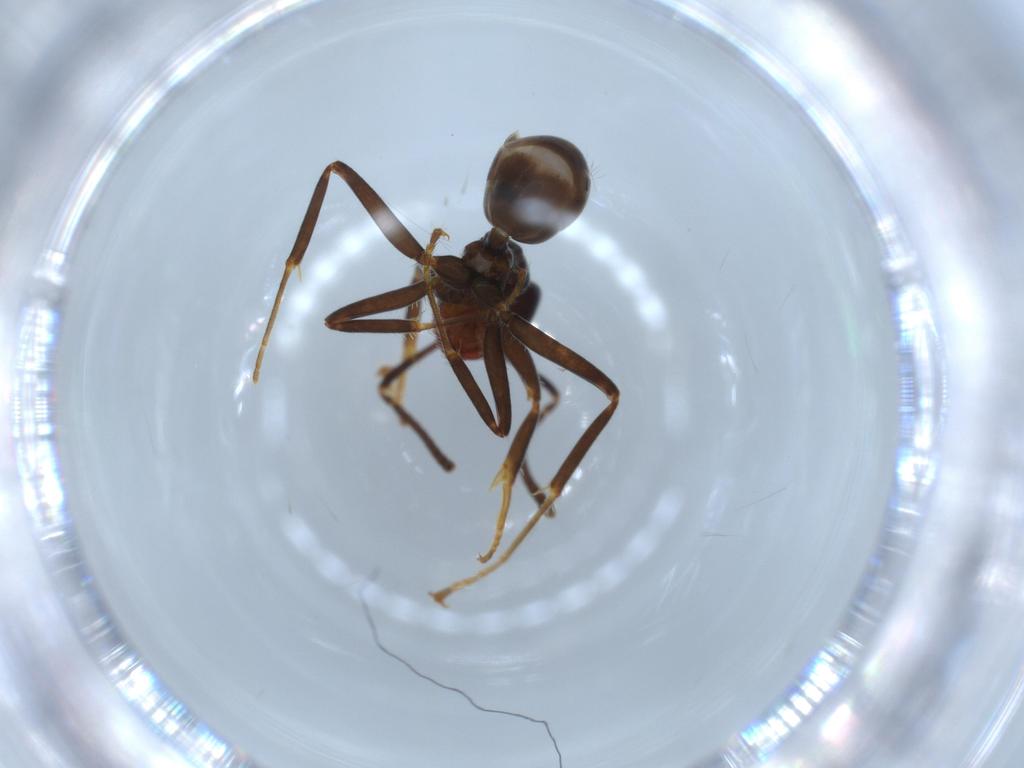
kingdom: Animalia
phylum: Arthropoda
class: Insecta
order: Hymenoptera
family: Formicidae
